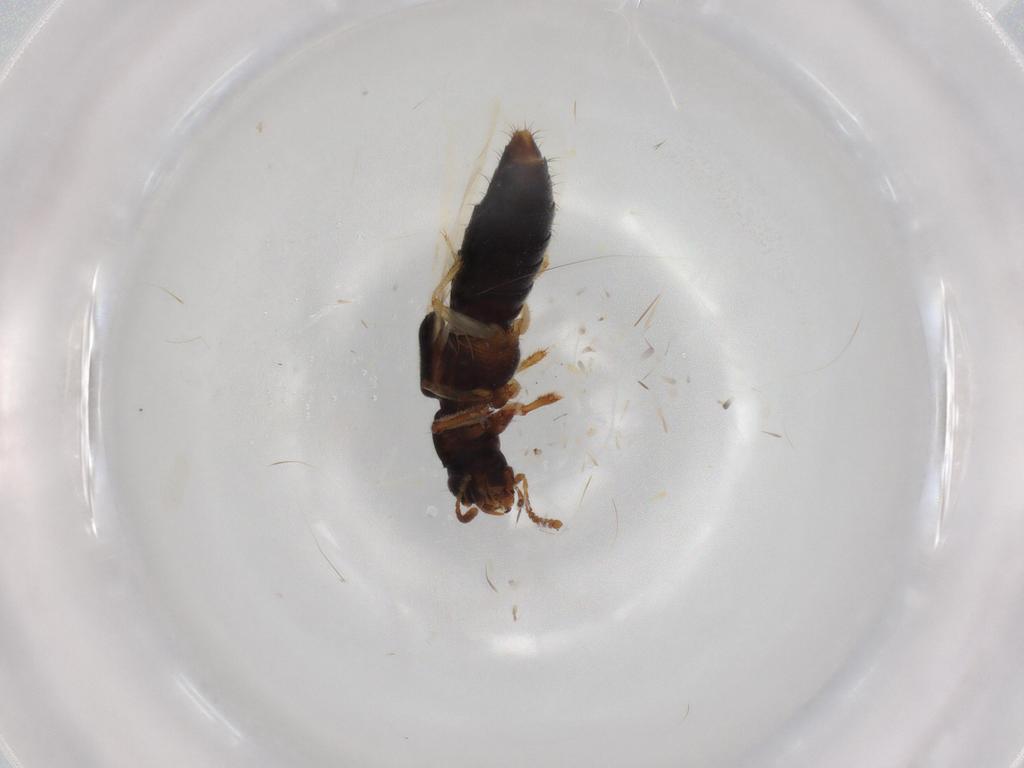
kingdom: Animalia
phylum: Arthropoda
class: Insecta
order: Coleoptera
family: Staphylinidae
